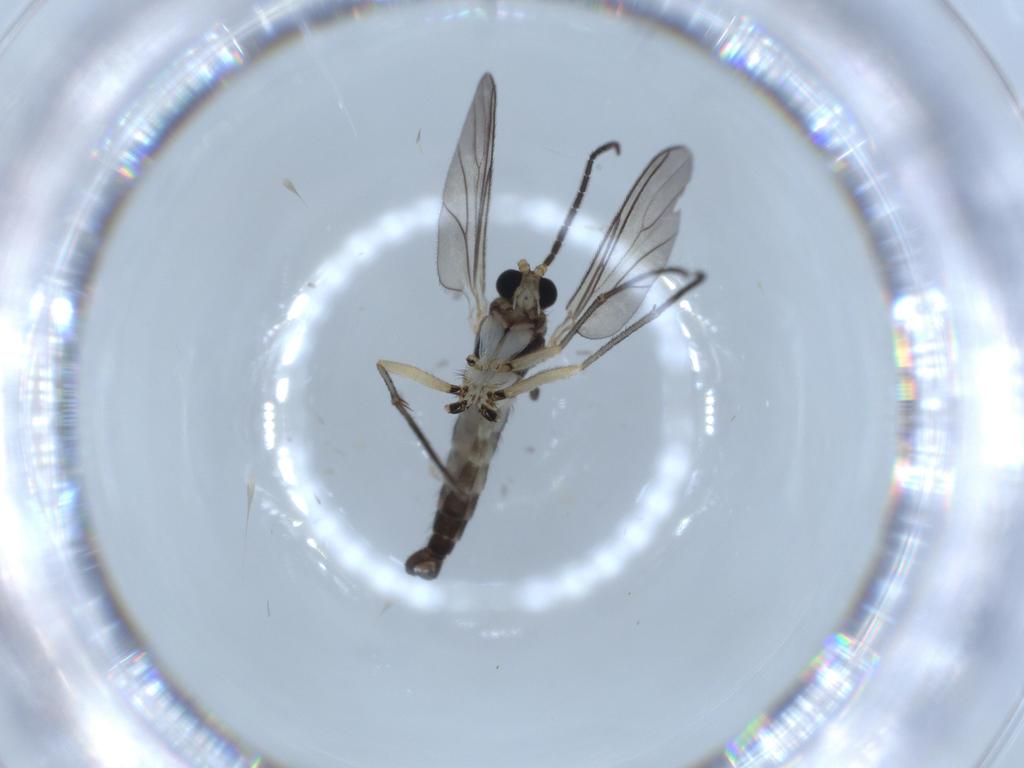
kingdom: Animalia
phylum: Arthropoda
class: Insecta
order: Diptera
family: Sciaridae
